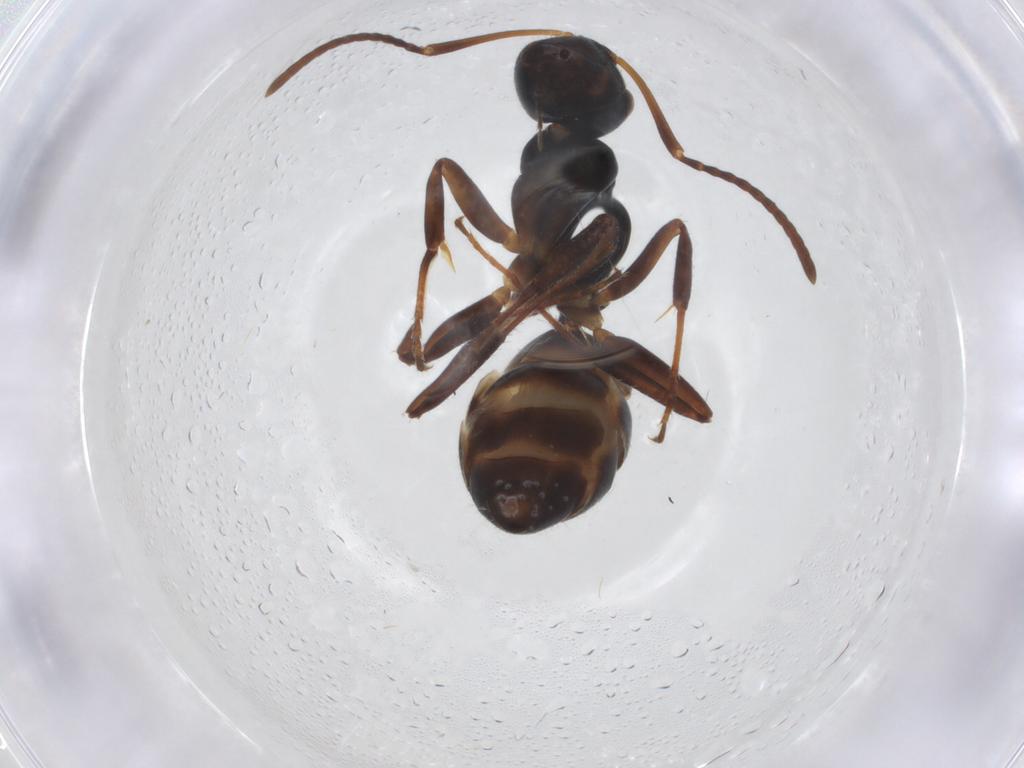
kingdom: Animalia
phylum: Arthropoda
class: Insecta
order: Hymenoptera
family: Formicidae
